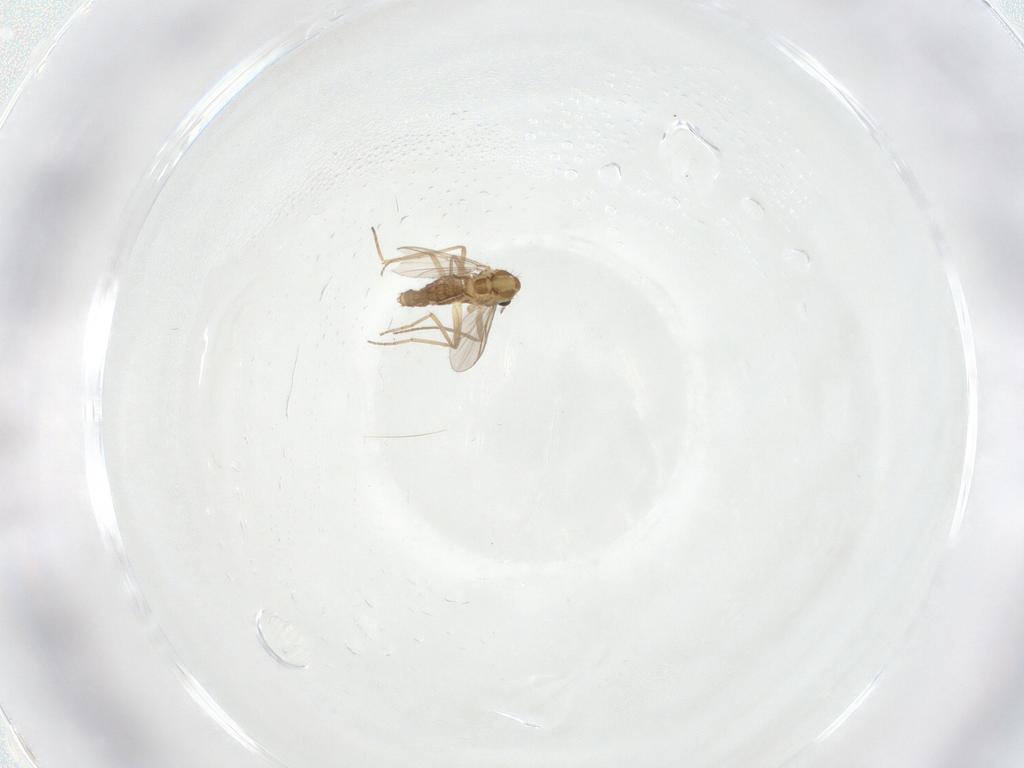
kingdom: Animalia
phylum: Arthropoda
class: Insecta
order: Diptera
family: Chironomidae
